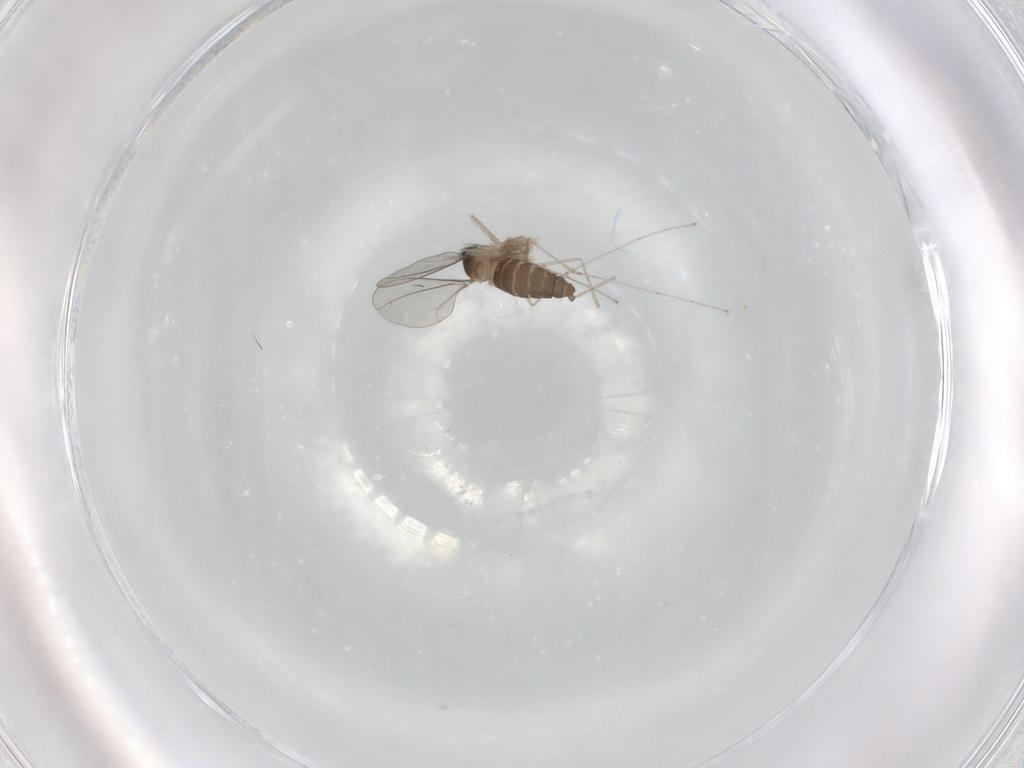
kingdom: Animalia
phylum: Arthropoda
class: Insecta
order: Diptera
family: Cecidomyiidae
